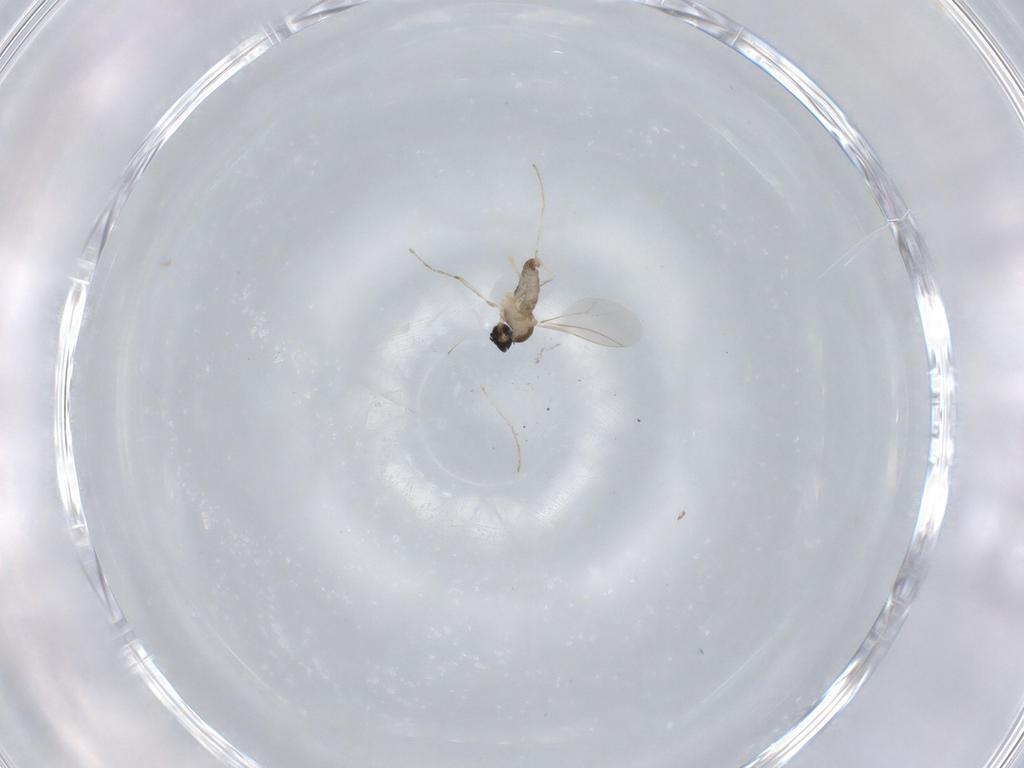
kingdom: Animalia
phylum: Arthropoda
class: Insecta
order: Diptera
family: Cecidomyiidae
